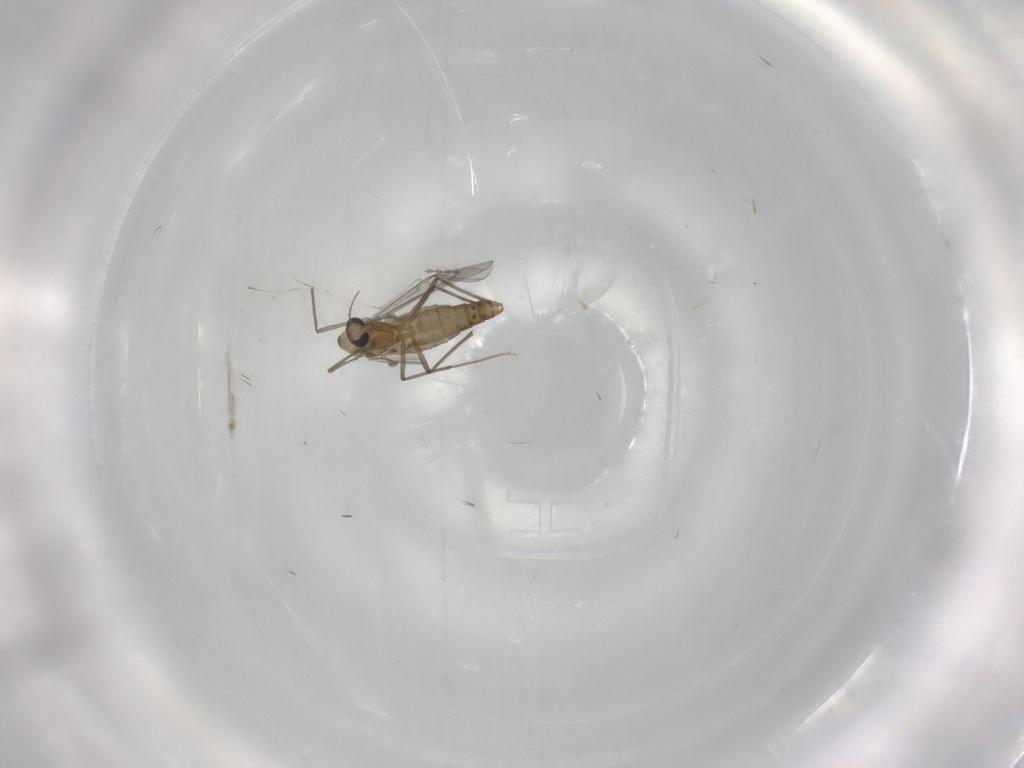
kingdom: Animalia
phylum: Arthropoda
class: Insecta
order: Diptera
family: Cecidomyiidae
